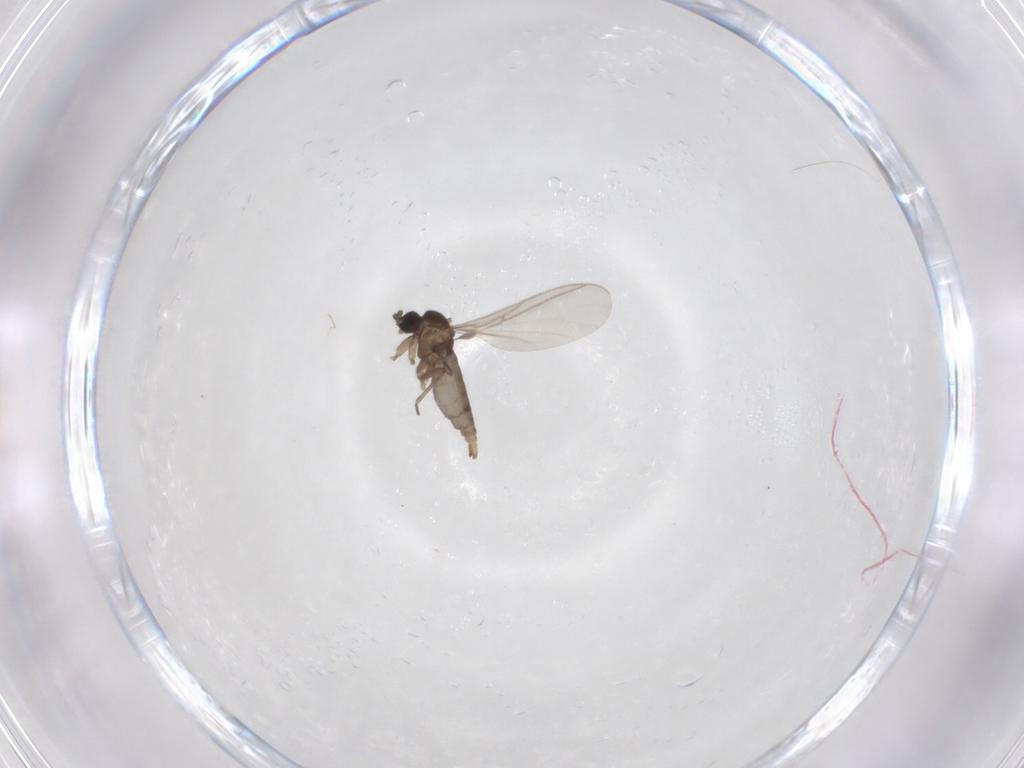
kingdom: Animalia
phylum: Arthropoda
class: Insecta
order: Diptera
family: Sciaridae
